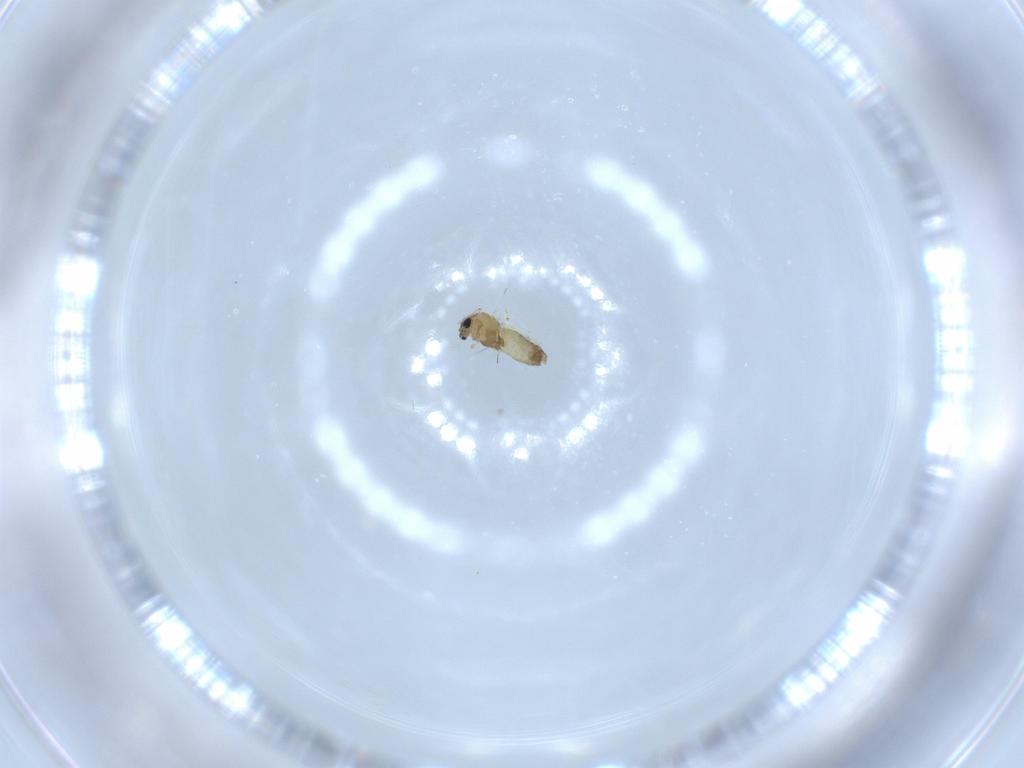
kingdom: Animalia
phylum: Arthropoda
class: Insecta
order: Diptera
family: Chironomidae
